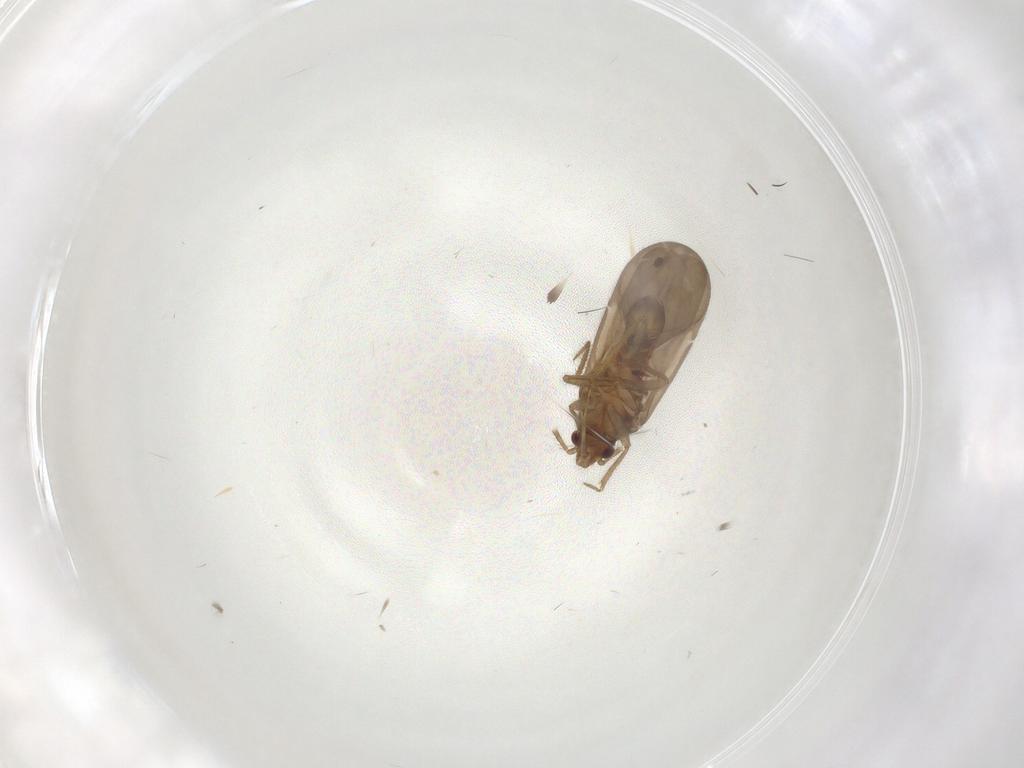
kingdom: Animalia
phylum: Arthropoda
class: Insecta
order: Hemiptera
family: Ceratocombidae
